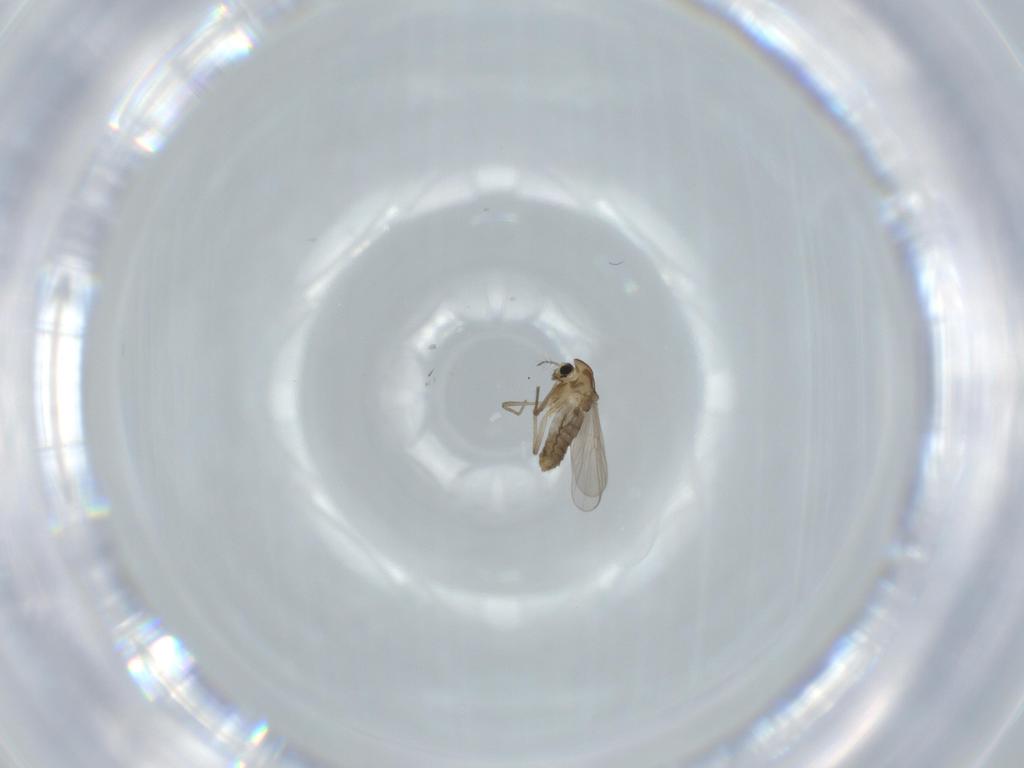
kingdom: Animalia
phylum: Arthropoda
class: Insecta
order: Diptera
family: Chironomidae
